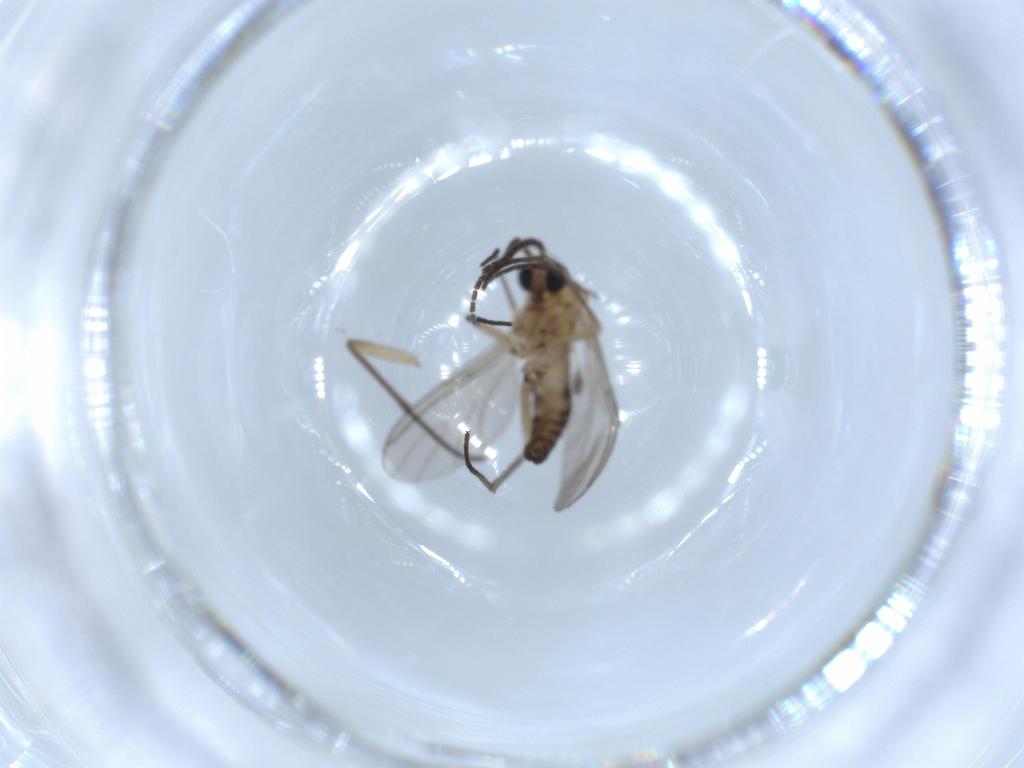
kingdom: Animalia
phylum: Arthropoda
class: Insecta
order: Diptera
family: Sciaridae
